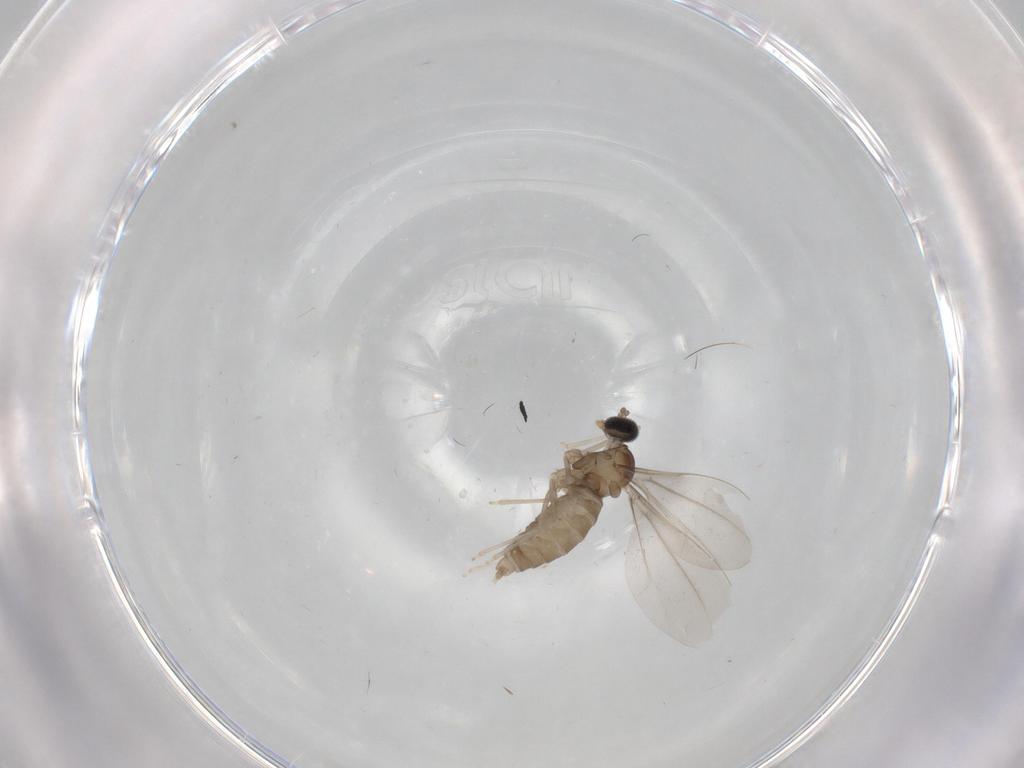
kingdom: Animalia
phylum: Arthropoda
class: Insecta
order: Diptera
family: Cecidomyiidae
